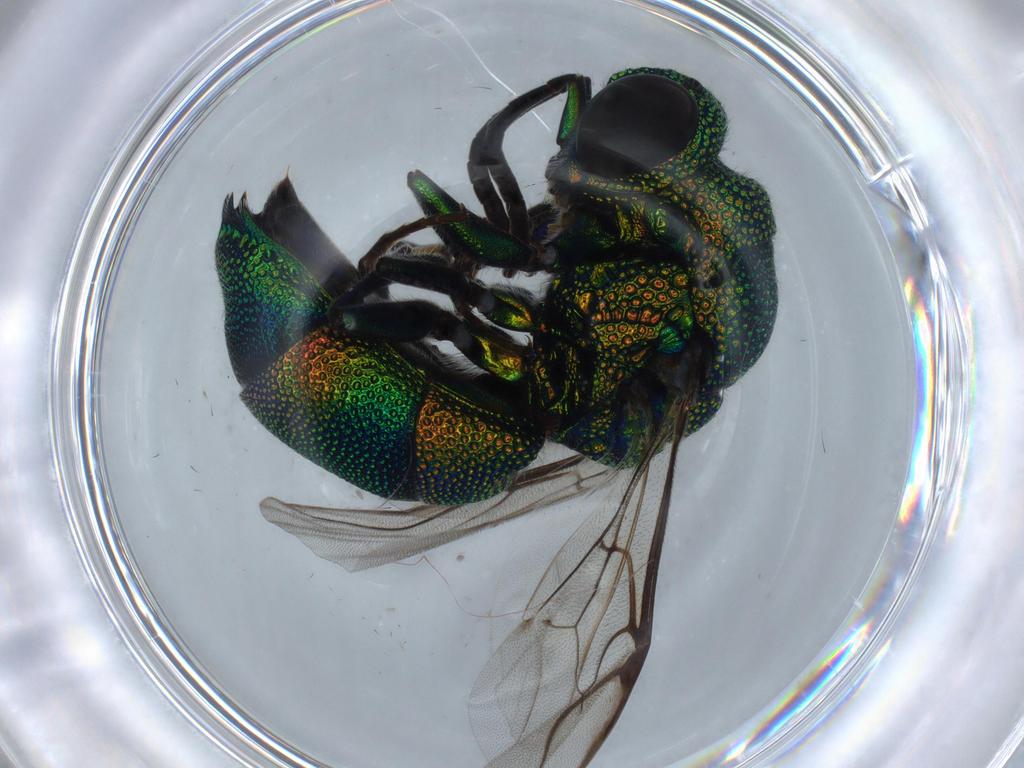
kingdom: Animalia
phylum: Arthropoda
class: Insecta
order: Hymenoptera
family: Chrysididae
